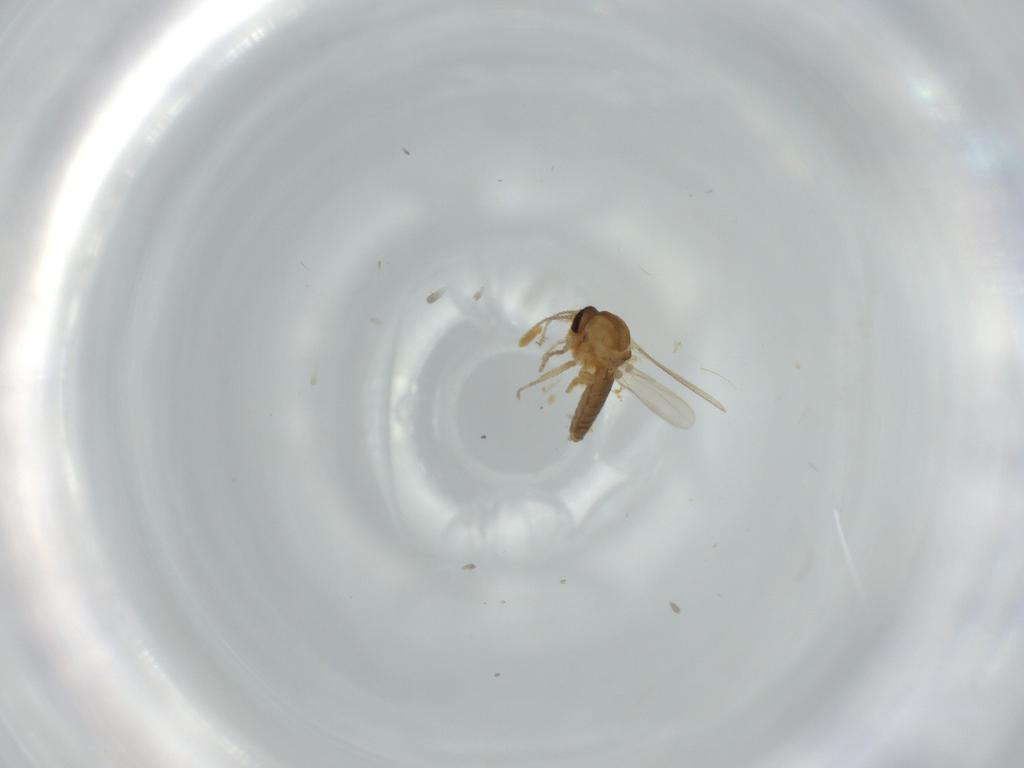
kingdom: Animalia
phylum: Arthropoda
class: Insecta
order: Diptera
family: Ceratopogonidae
